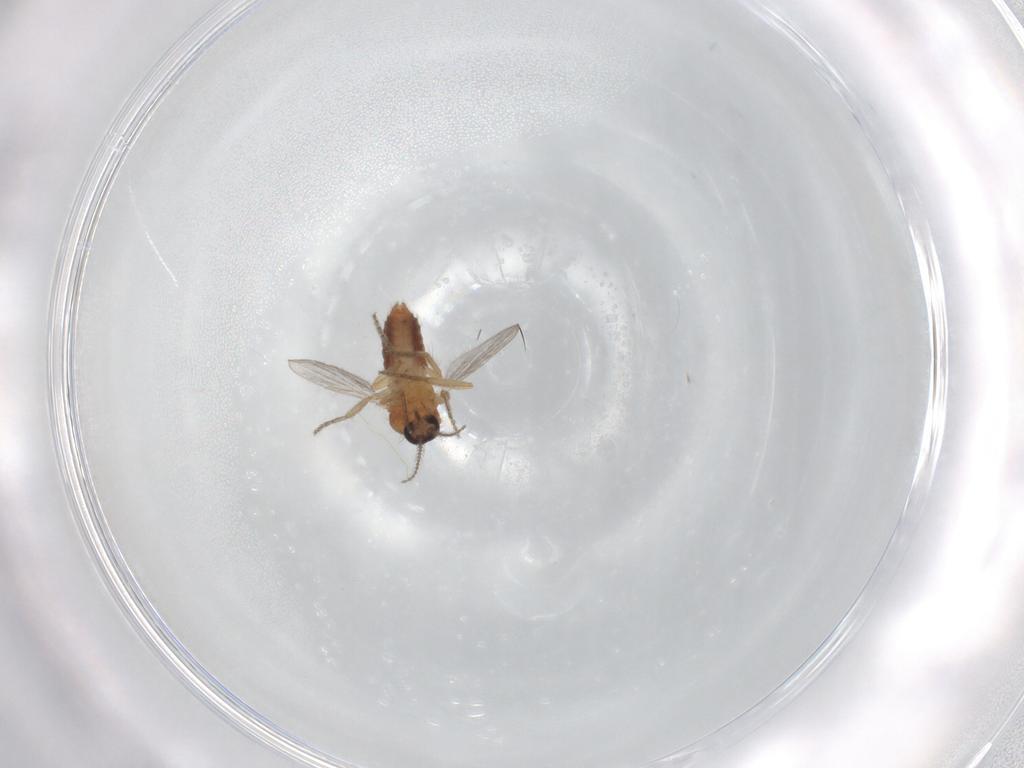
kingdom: Animalia
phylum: Arthropoda
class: Insecta
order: Diptera
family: Ceratopogonidae
